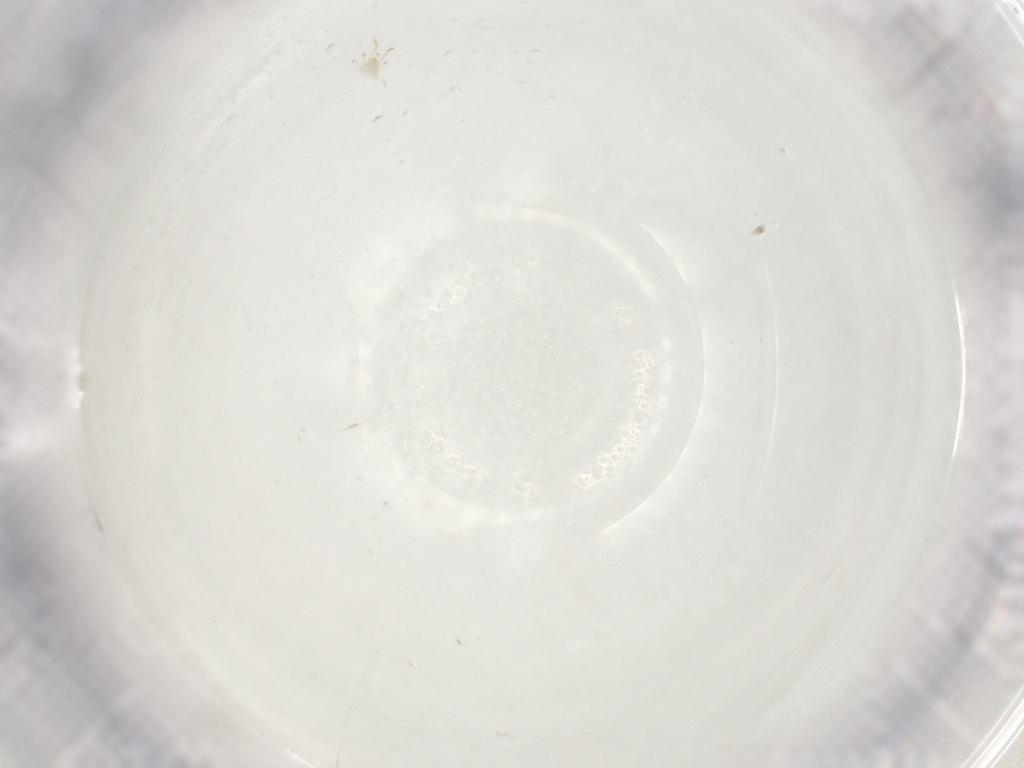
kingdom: Animalia
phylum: Arthropoda
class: Arachnida
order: Mesostigmata
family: Phytoseiidae
